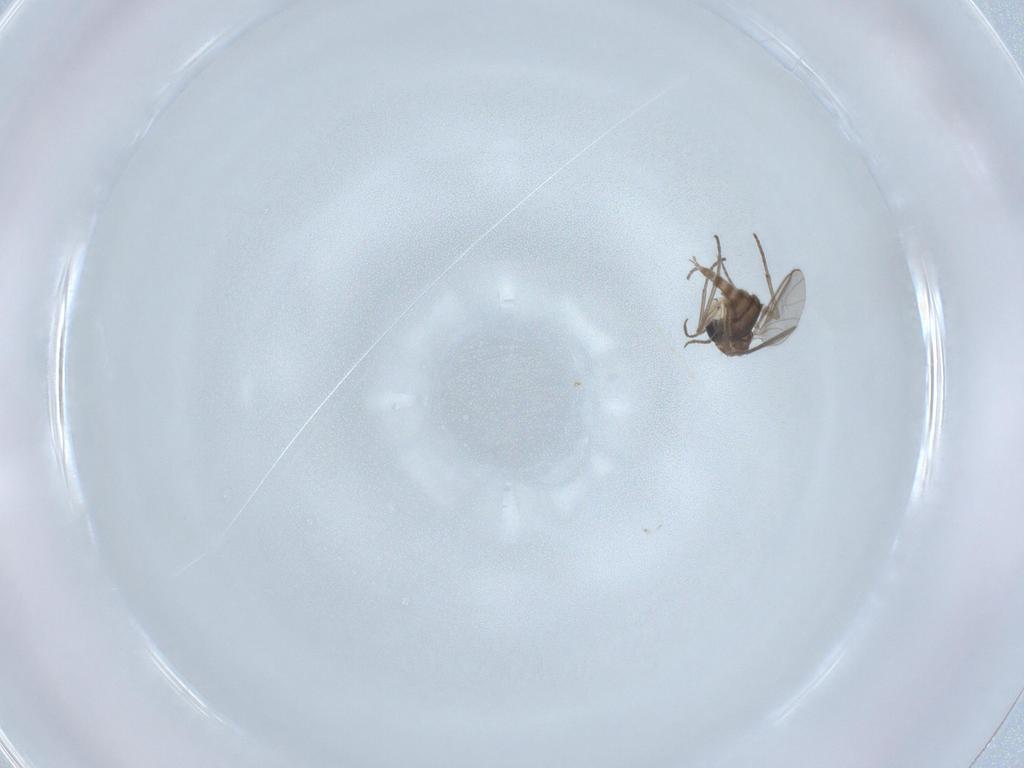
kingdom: Animalia
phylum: Arthropoda
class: Insecta
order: Diptera
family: Sciaridae
